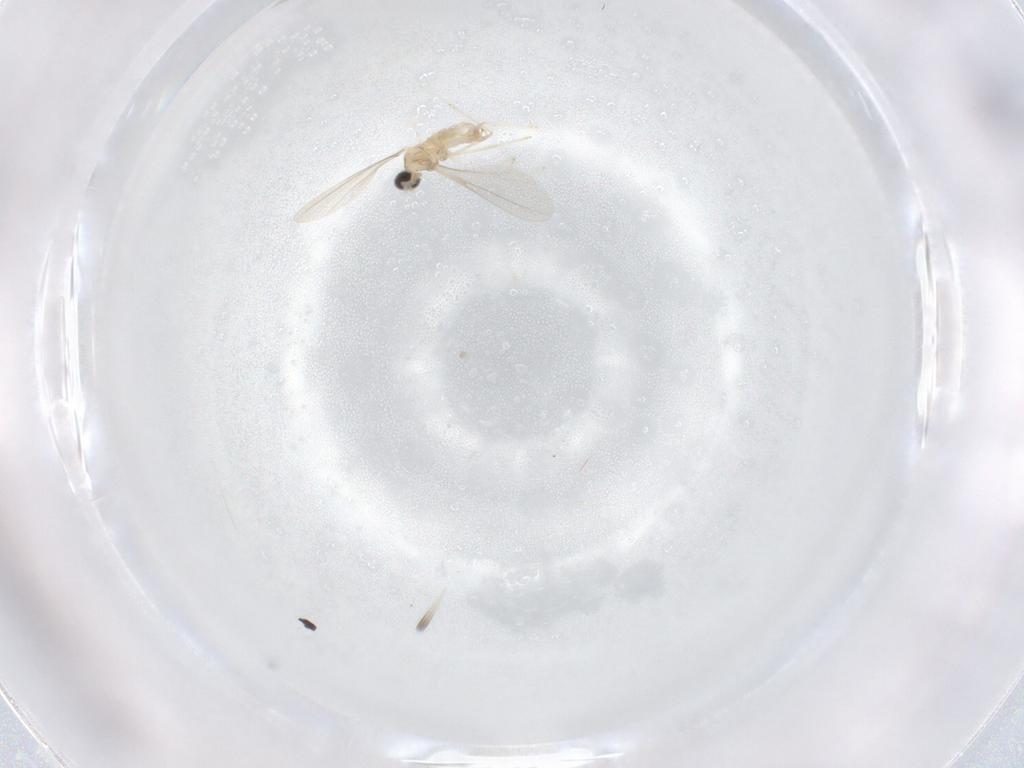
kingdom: Animalia
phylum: Arthropoda
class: Insecta
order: Diptera
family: Cecidomyiidae
